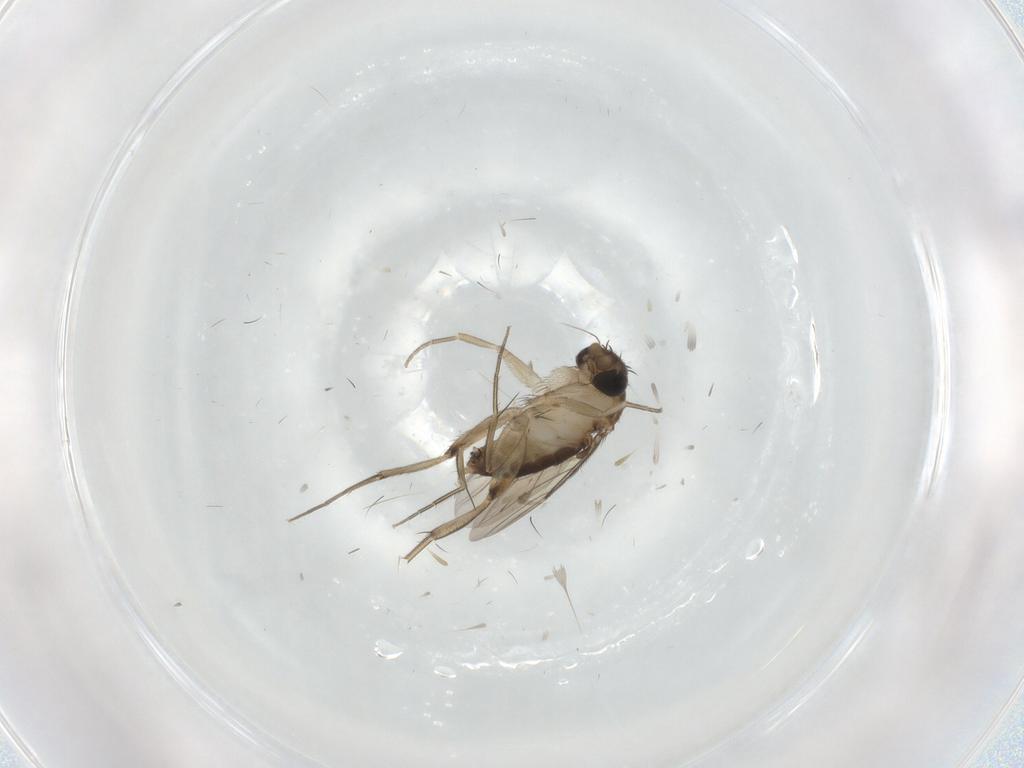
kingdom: Animalia
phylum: Arthropoda
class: Insecta
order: Diptera
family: Phoridae
